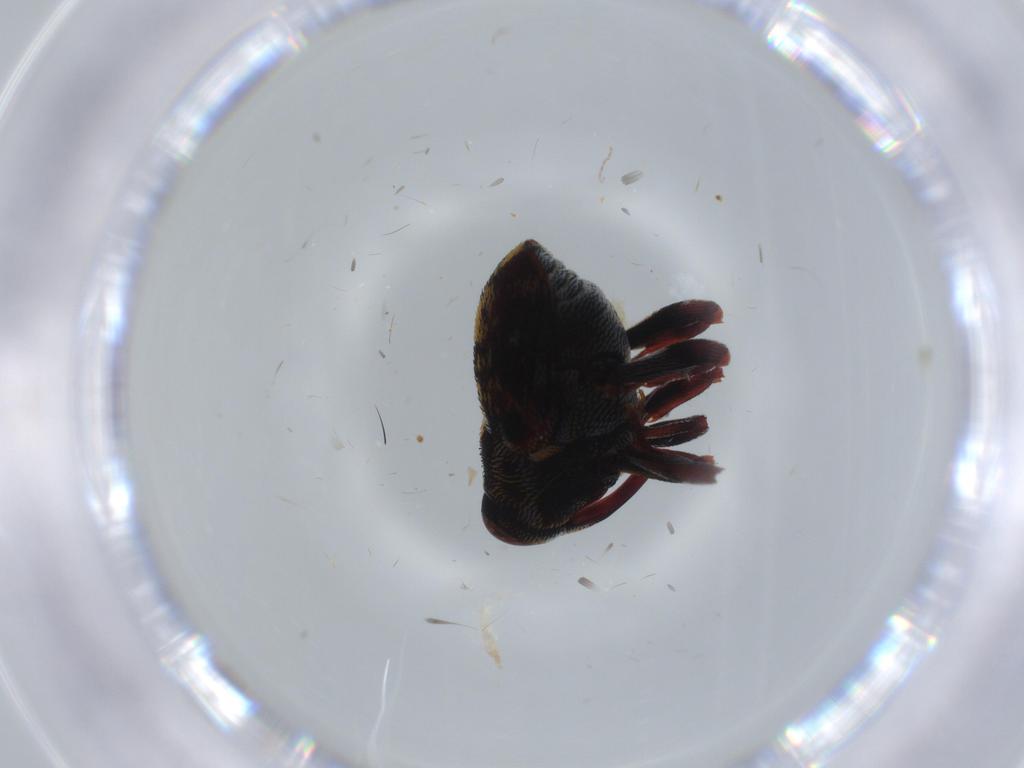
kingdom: Animalia
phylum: Arthropoda
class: Insecta
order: Coleoptera
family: Curculionidae
